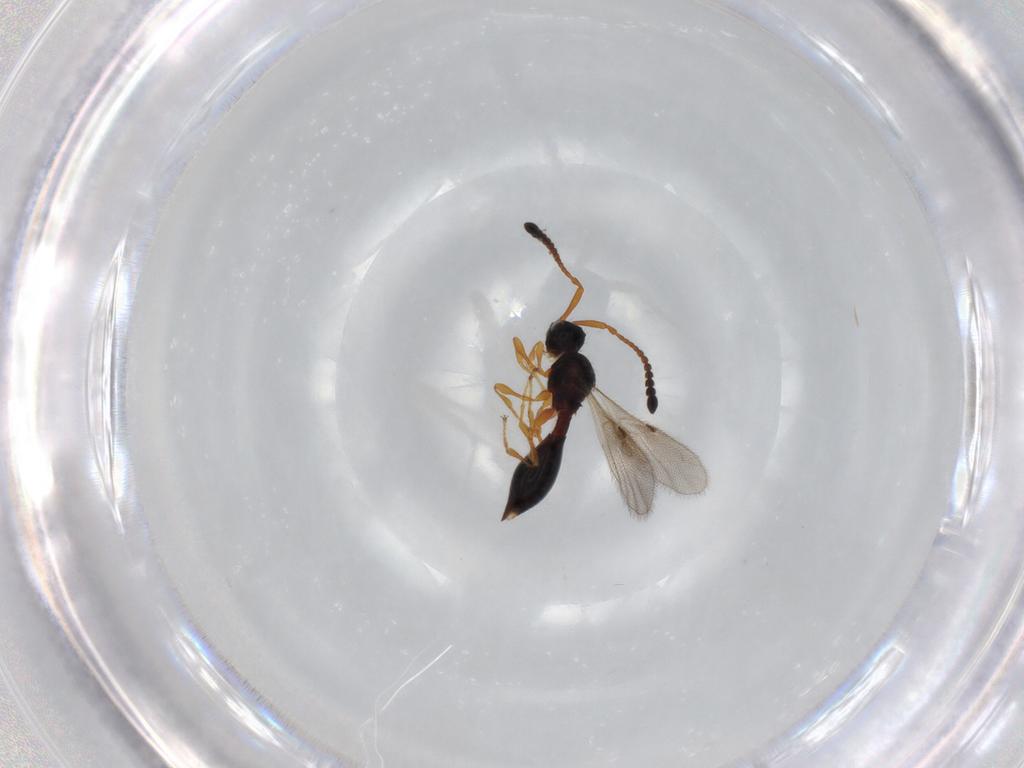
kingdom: Animalia
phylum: Arthropoda
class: Insecta
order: Hymenoptera
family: Diapriidae
